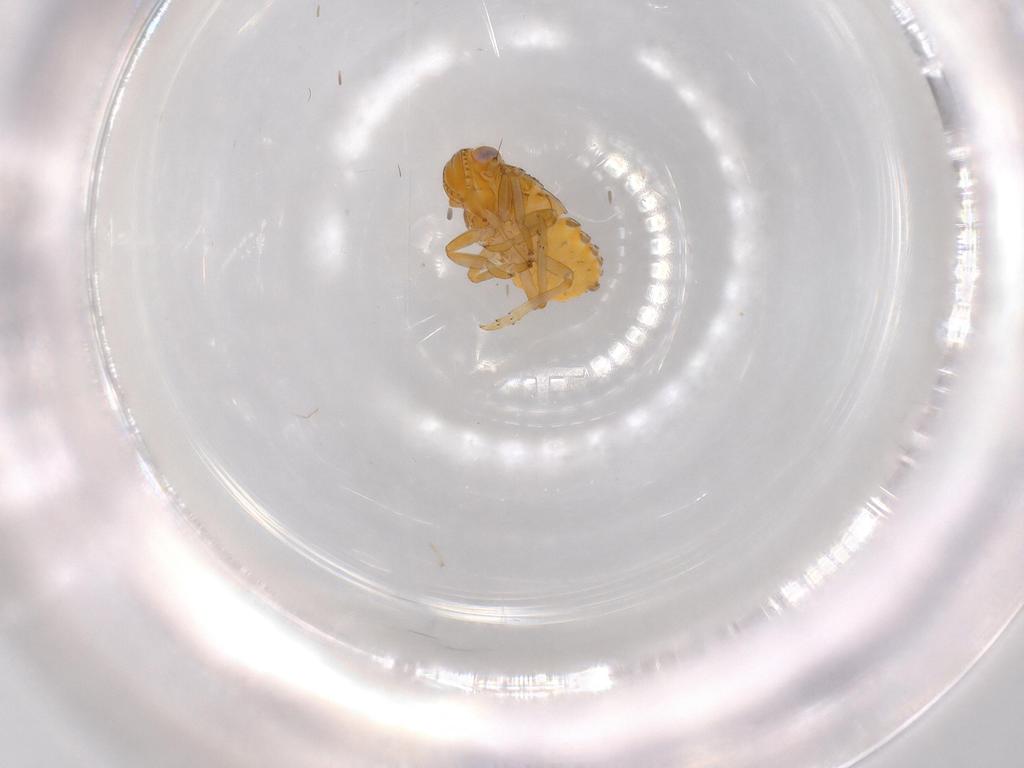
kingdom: Animalia
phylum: Arthropoda
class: Insecta
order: Hemiptera
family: Issidae
